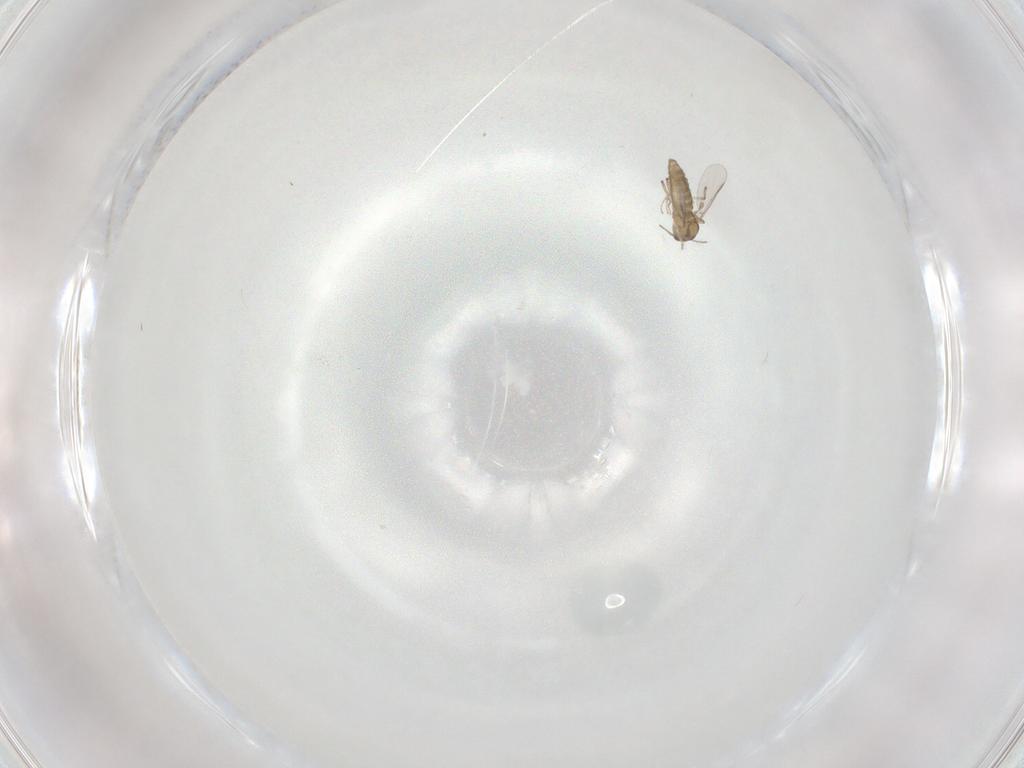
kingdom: Animalia
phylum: Arthropoda
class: Insecta
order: Diptera
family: Chironomidae
